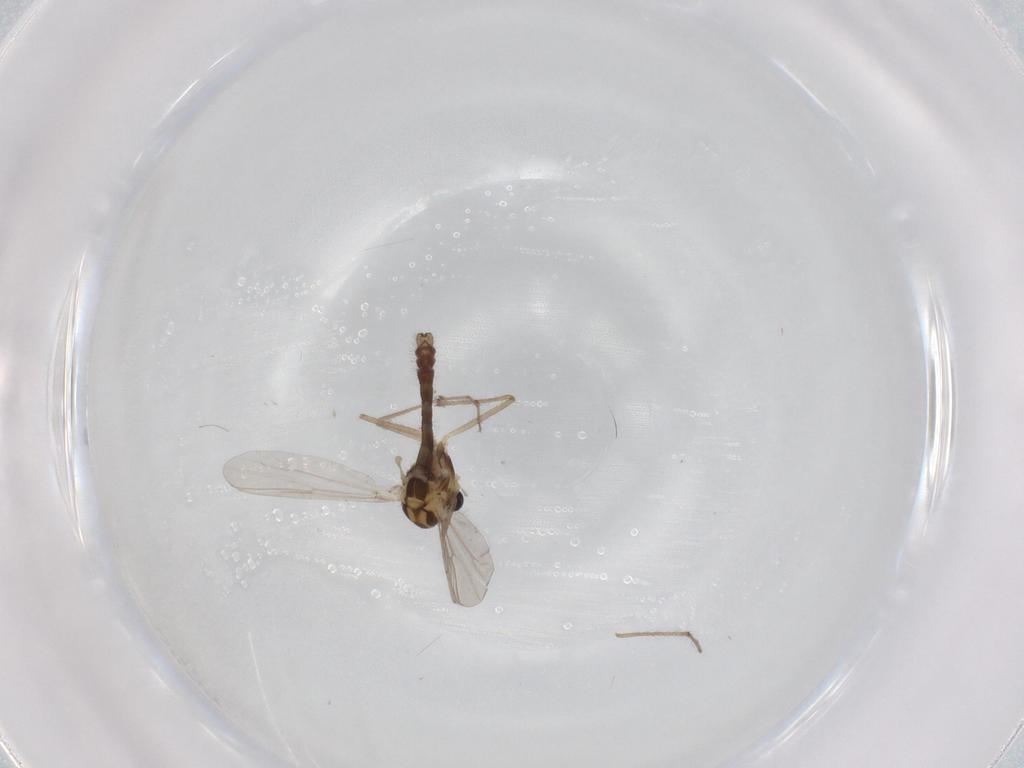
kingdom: Animalia
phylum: Arthropoda
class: Insecta
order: Diptera
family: Chironomidae
